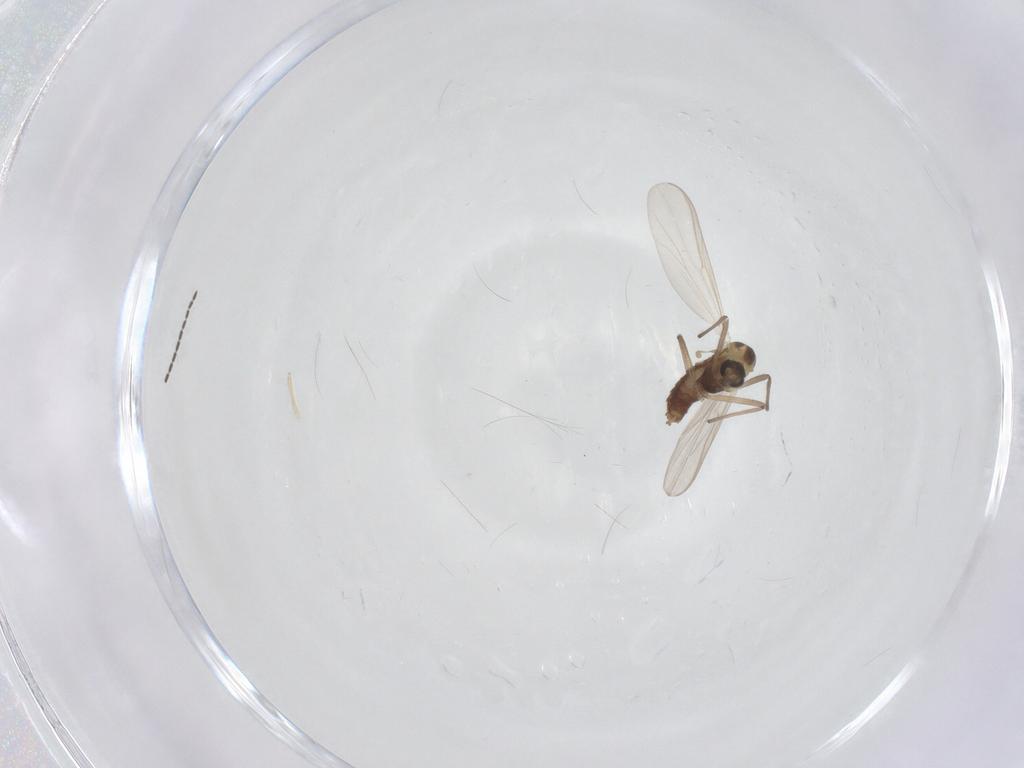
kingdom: Animalia
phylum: Arthropoda
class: Insecta
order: Diptera
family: Chironomidae
